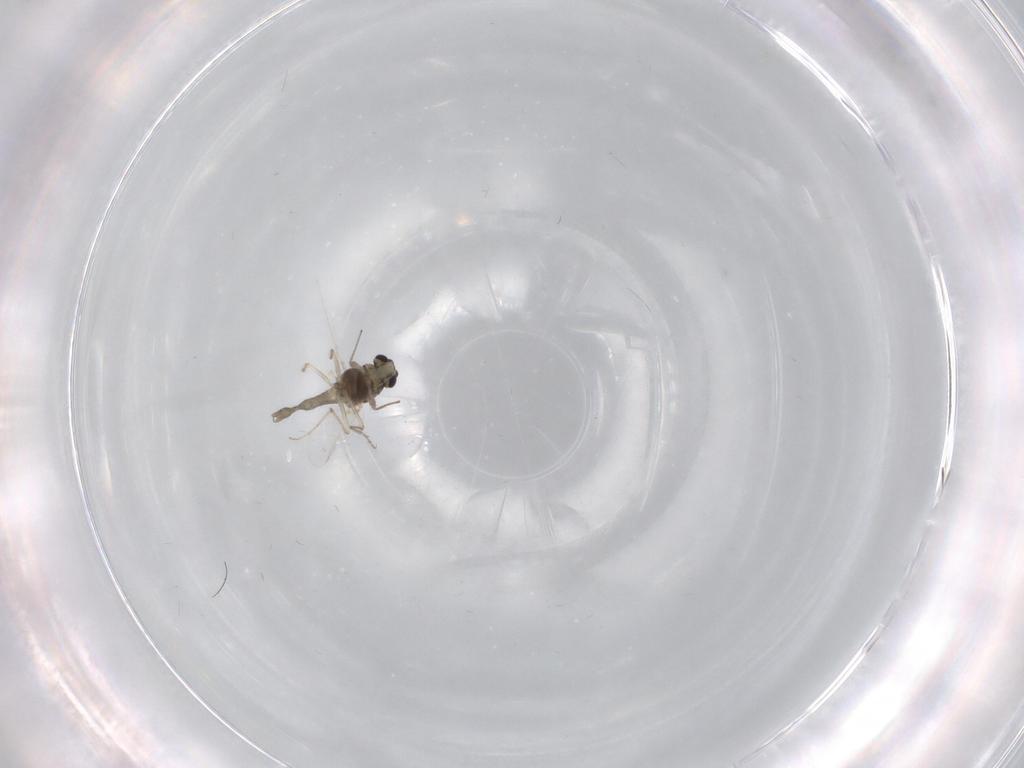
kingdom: Animalia
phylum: Arthropoda
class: Insecta
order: Diptera
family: Chironomidae
